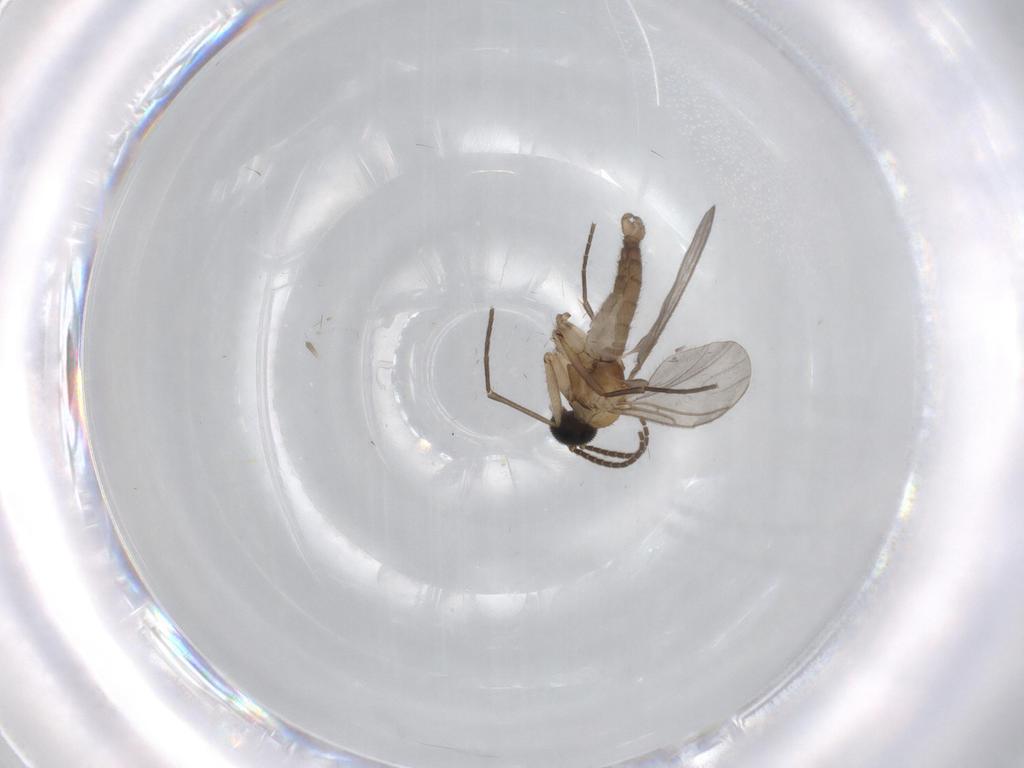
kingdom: Animalia
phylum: Arthropoda
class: Insecta
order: Diptera
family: Sciaridae
